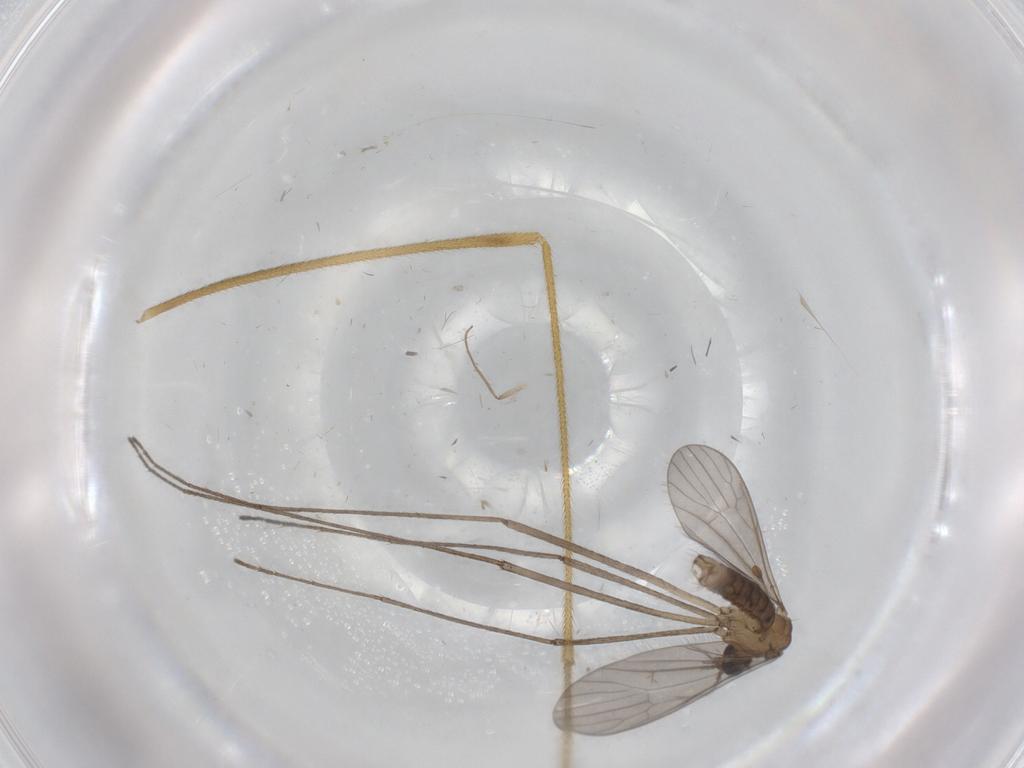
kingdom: Animalia
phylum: Arthropoda
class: Insecta
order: Diptera
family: Limoniidae
